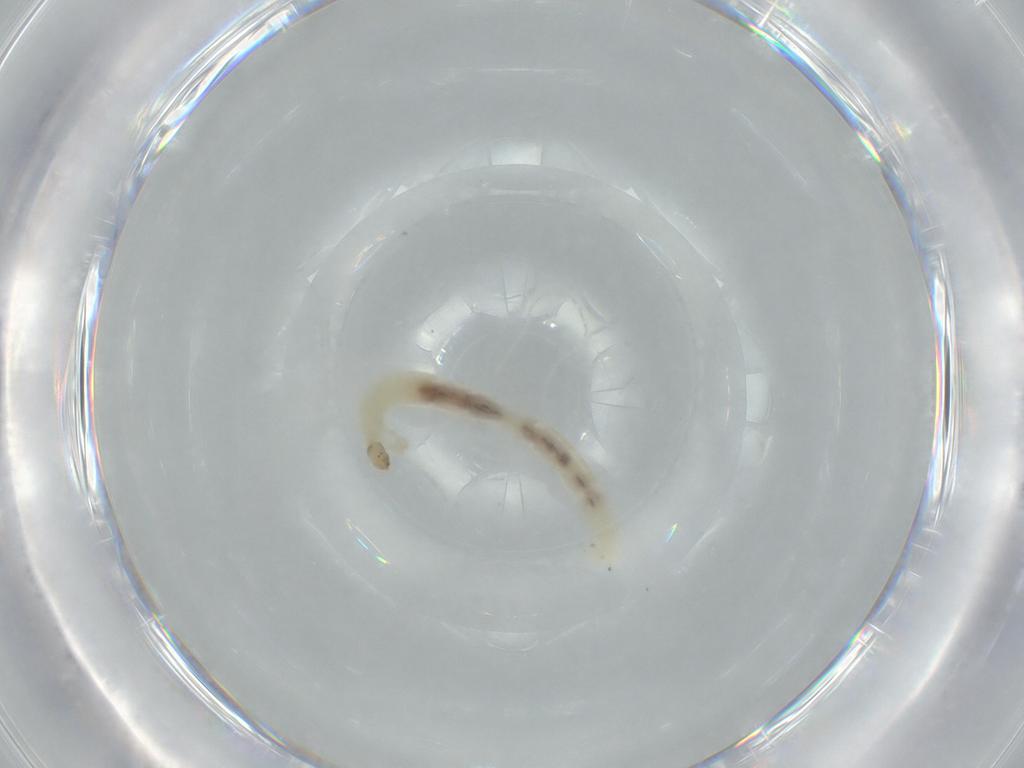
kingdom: Animalia
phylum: Arthropoda
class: Insecta
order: Diptera
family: Chironomidae
